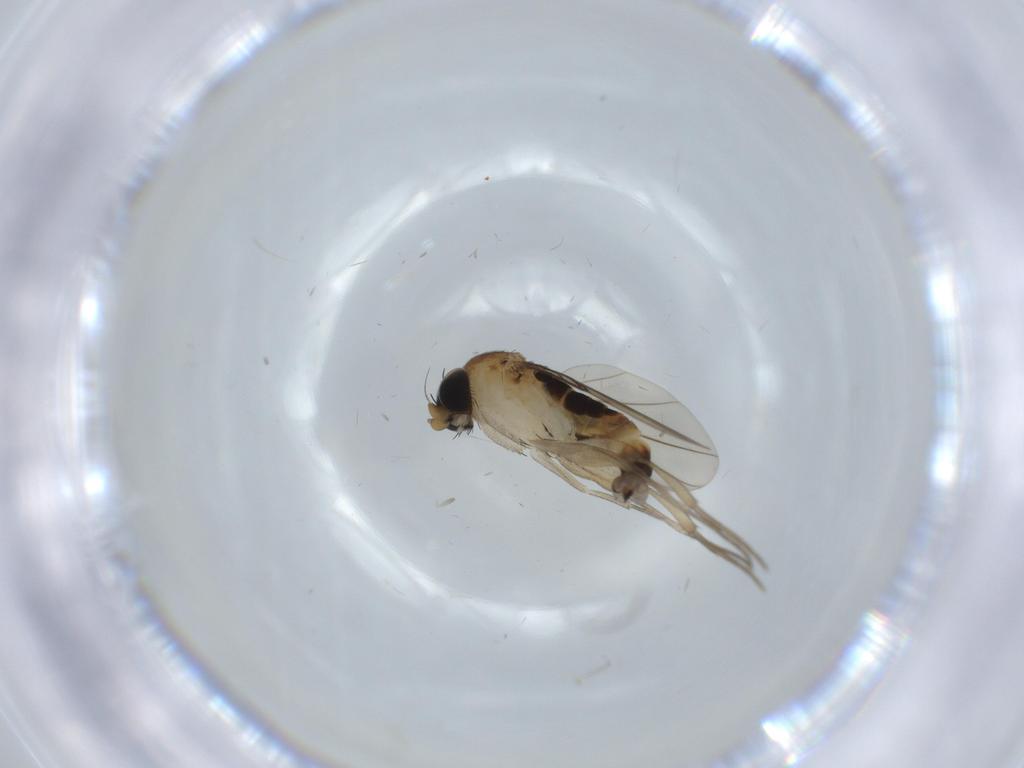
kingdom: Animalia
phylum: Arthropoda
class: Insecta
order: Diptera
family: Phoridae
